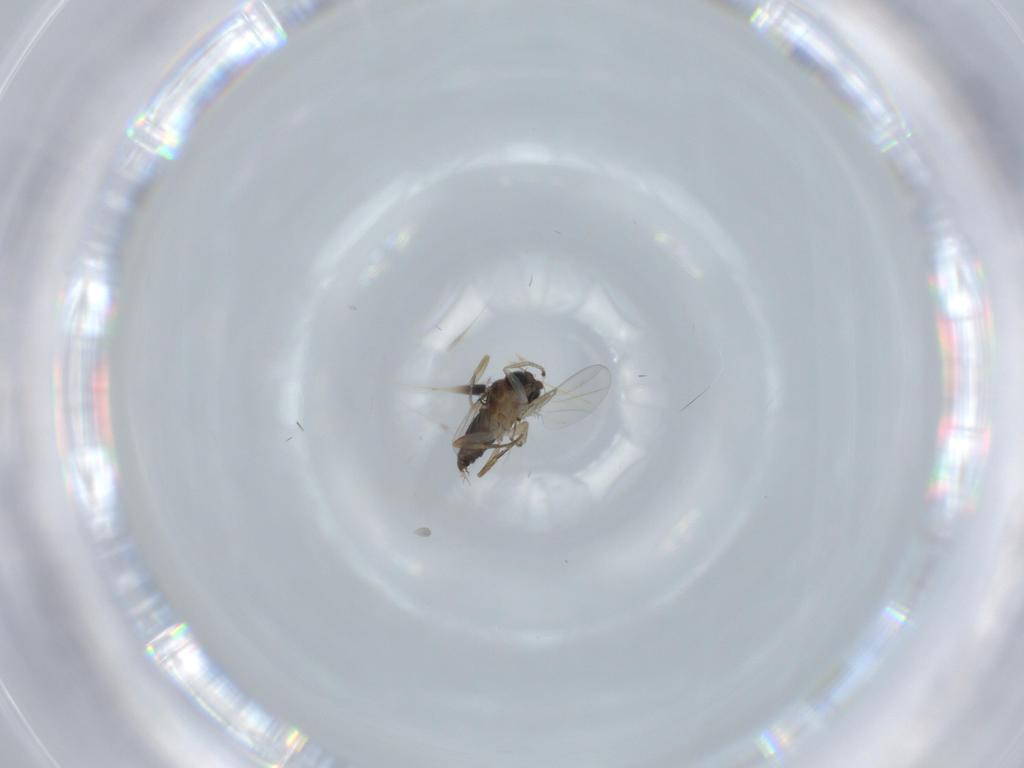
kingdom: Animalia
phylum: Arthropoda
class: Insecta
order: Diptera
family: Phoridae
